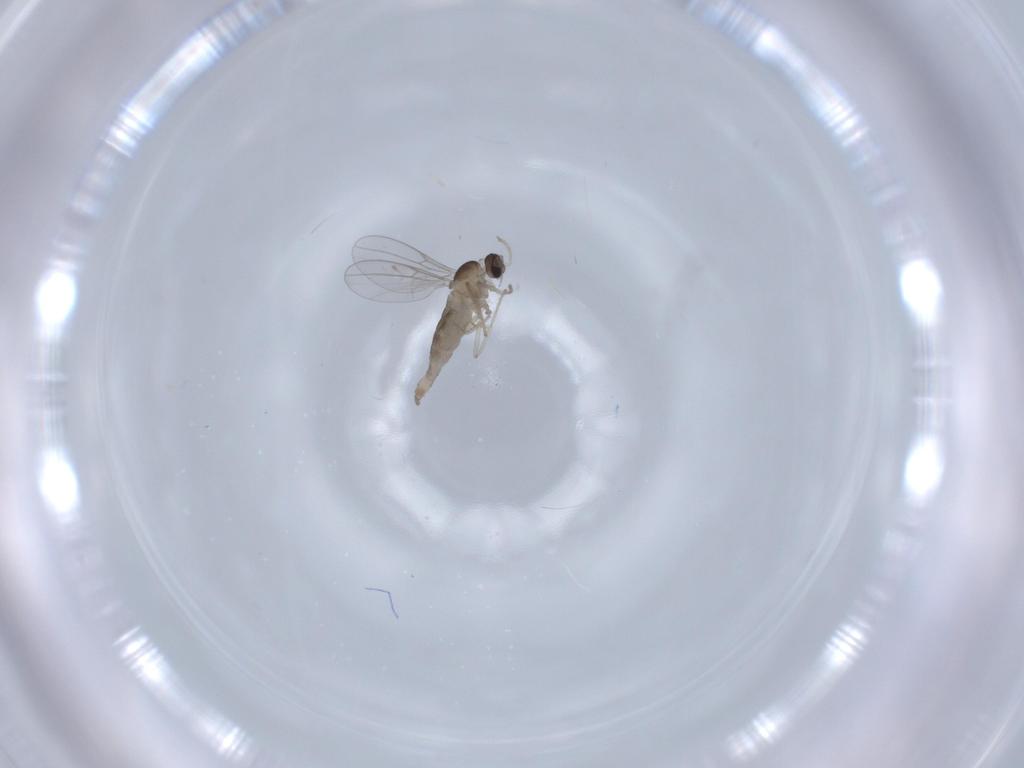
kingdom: Animalia
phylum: Arthropoda
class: Insecta
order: Diptera
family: Cecidomyiidae
